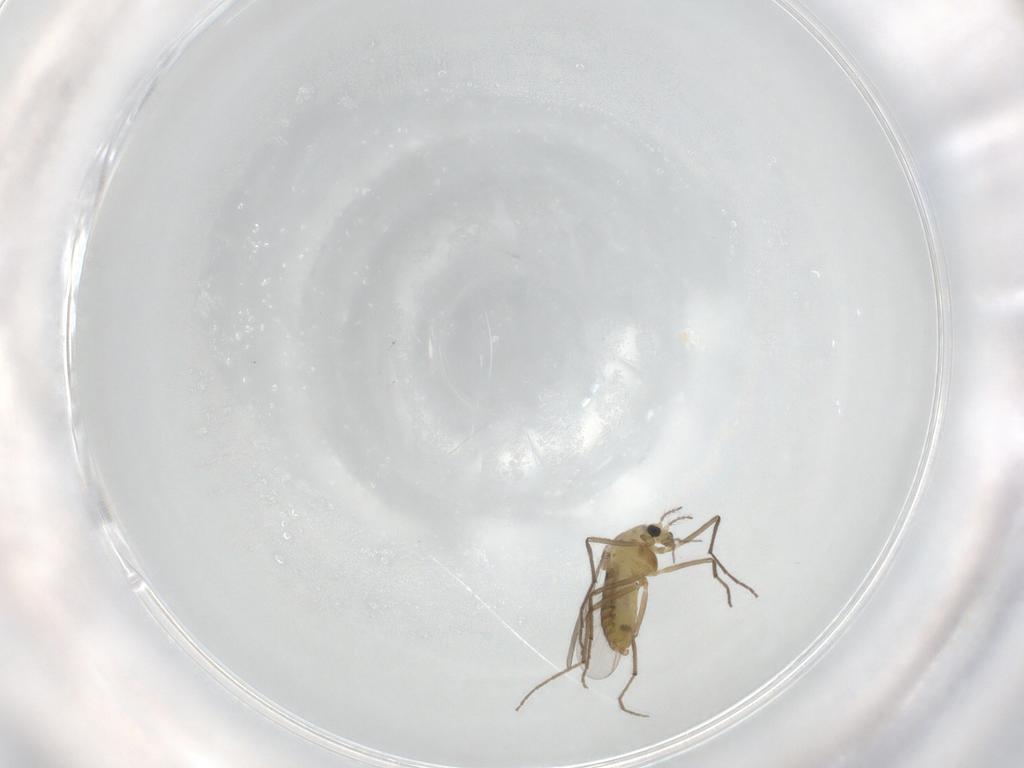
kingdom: Animalia
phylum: Arthropoda
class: Insecta
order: Diptera
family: Chironomidae
